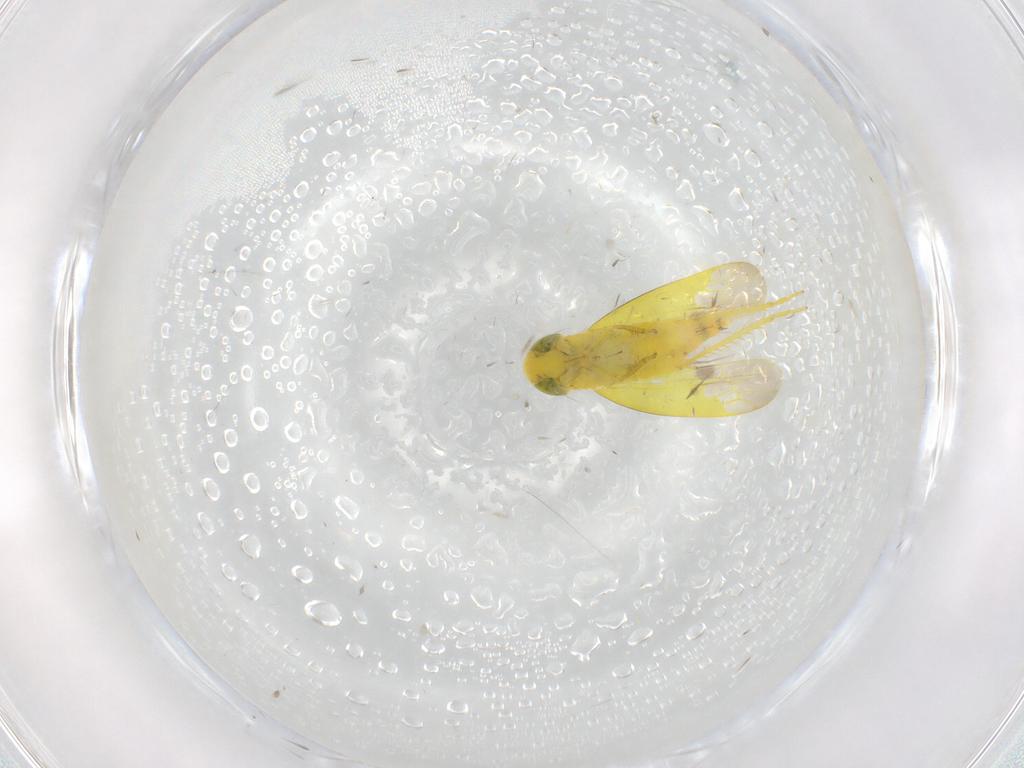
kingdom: Animalia
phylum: Arthropoda
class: Insecta
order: Hemiptera
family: Cicadellidae
